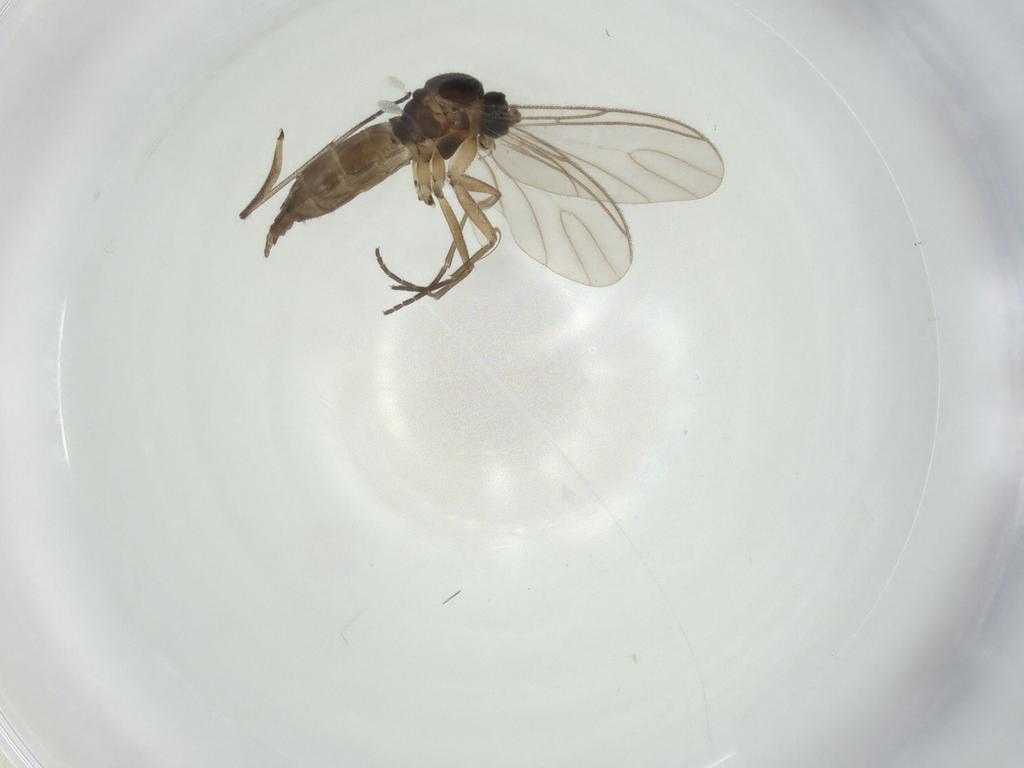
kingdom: Animalia
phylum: Arthropoda
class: Insecta
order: Diptera
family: Cecidomyiidae
